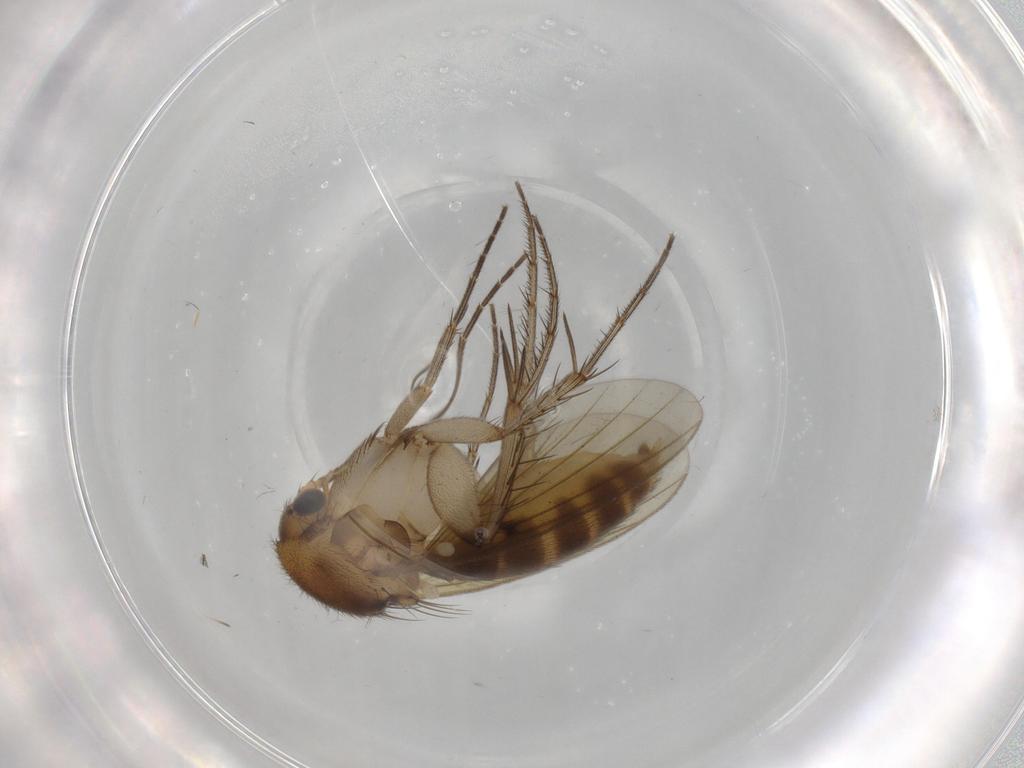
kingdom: Animalia
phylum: Arthropoda
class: Insecta
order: Diptera
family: Mycetophilidae
